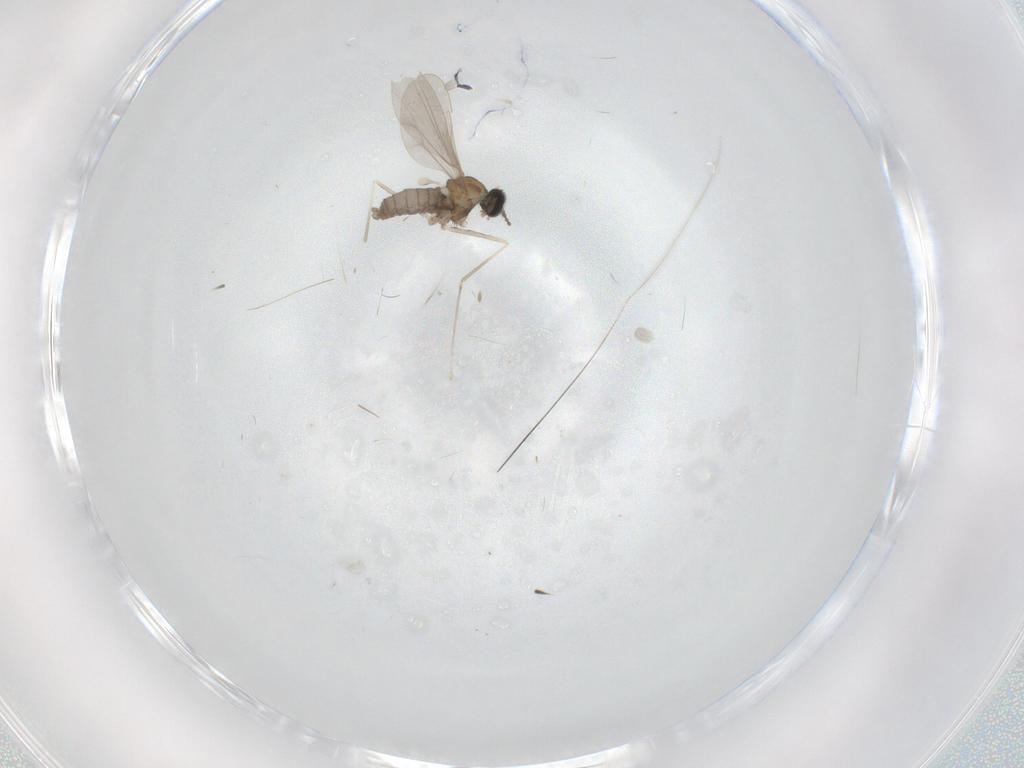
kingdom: Animalia
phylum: Arthropoda
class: Insecta
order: Diptera
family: Cecidomyiidae
